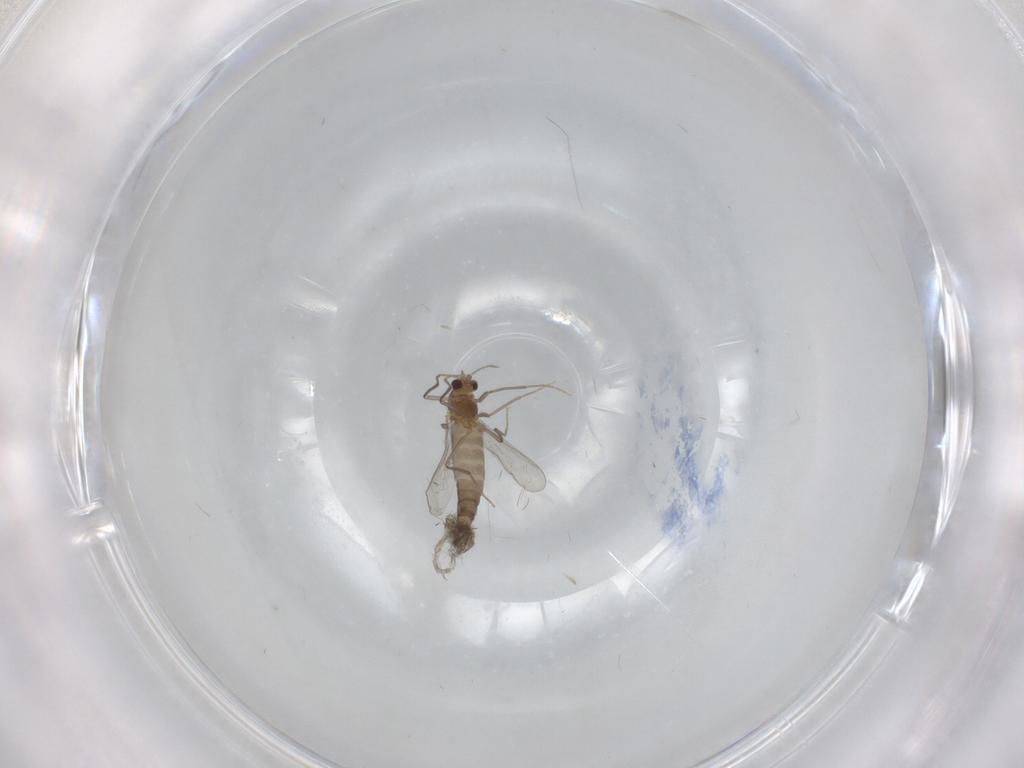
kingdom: Animalia
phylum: Arthropoda
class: Insecta
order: Diptera
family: Chironomidae
